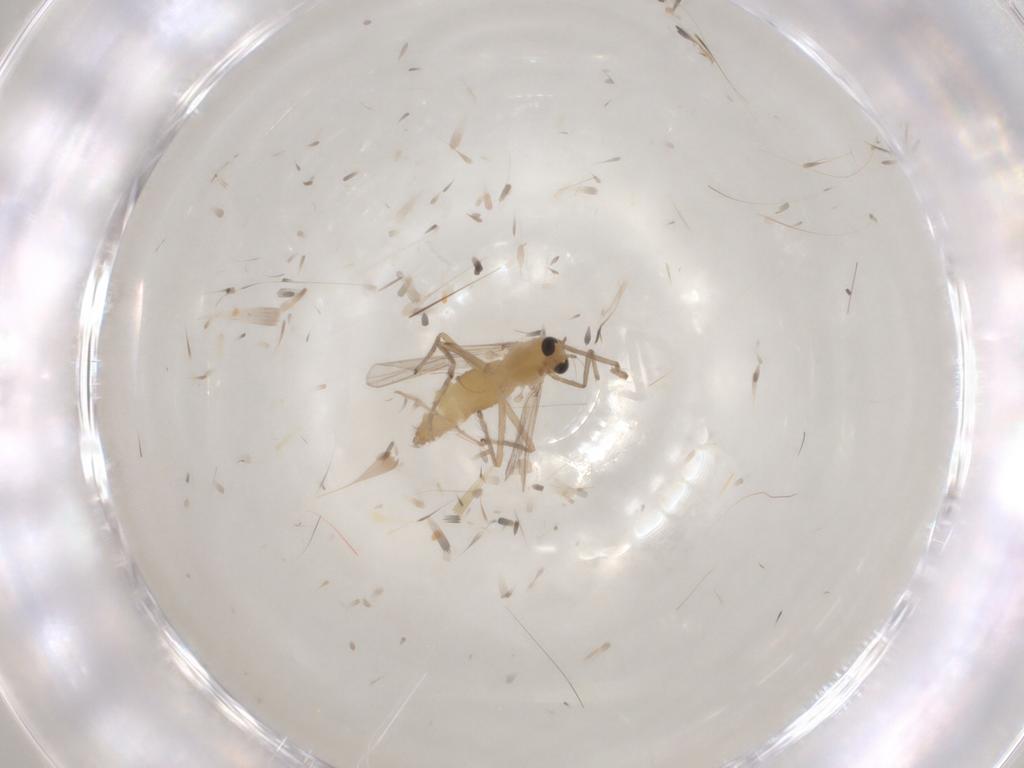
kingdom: Animalia
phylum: Arthropoda
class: Insecta
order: Diptera
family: Chironomidae
